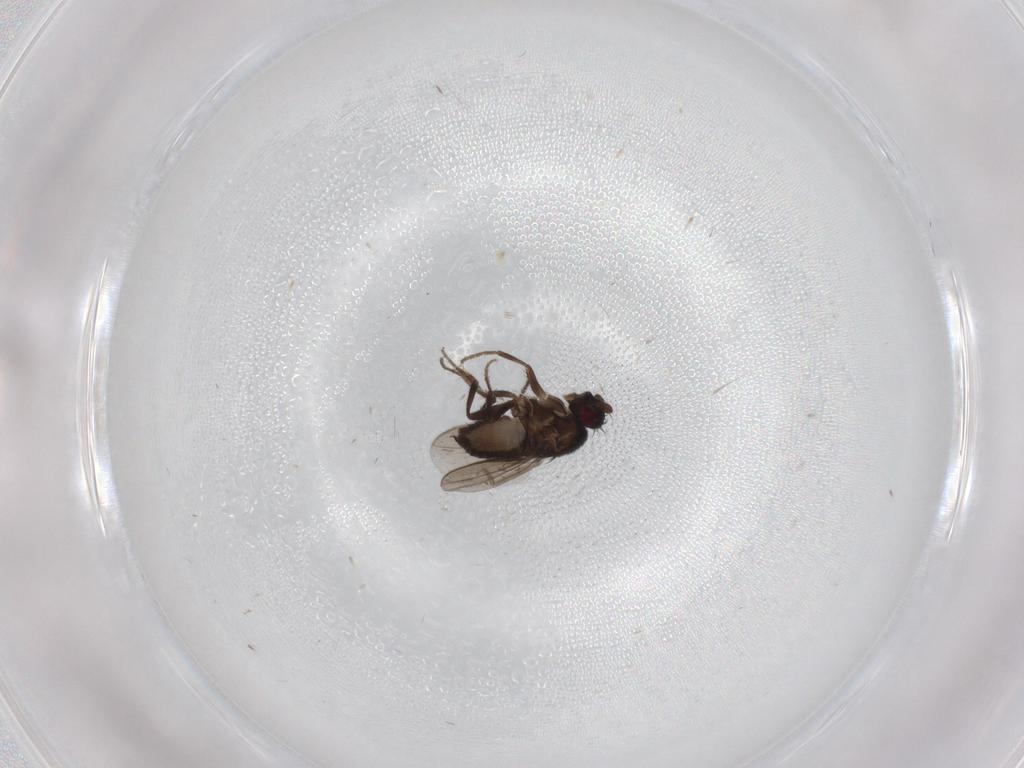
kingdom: Animalia
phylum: Arthropoda
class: Insecta
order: Diptera
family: Sciaridae
